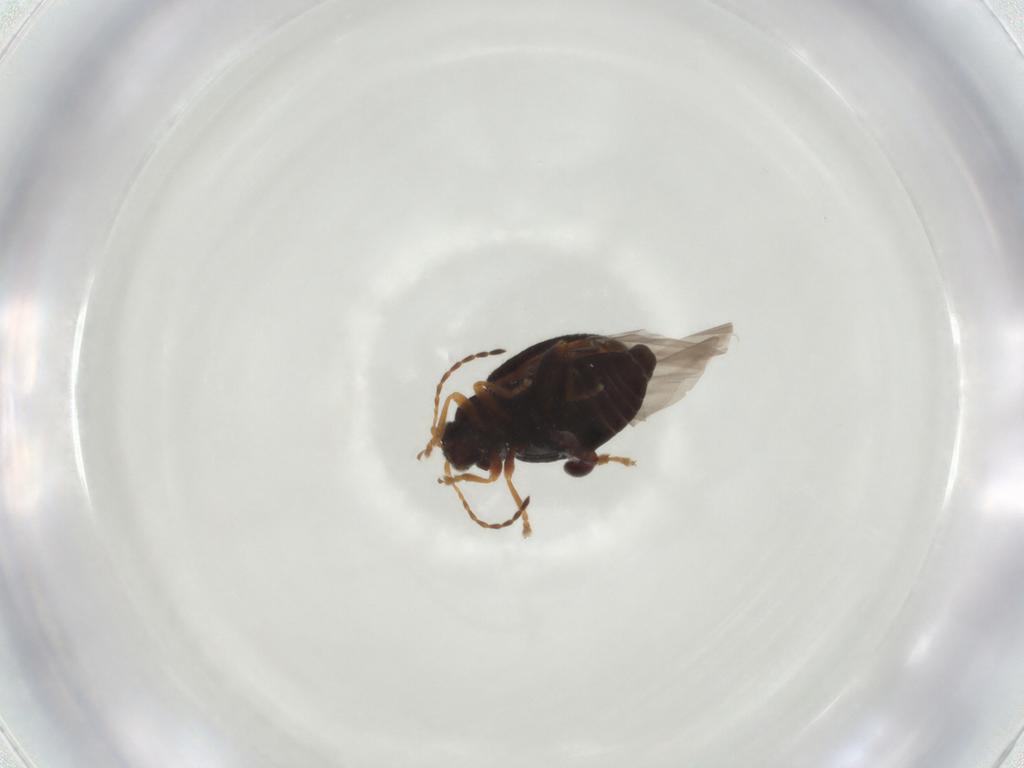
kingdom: Animalia
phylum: Arthropoda
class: Insecta
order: Coleoptera
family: Chrysomelidae
